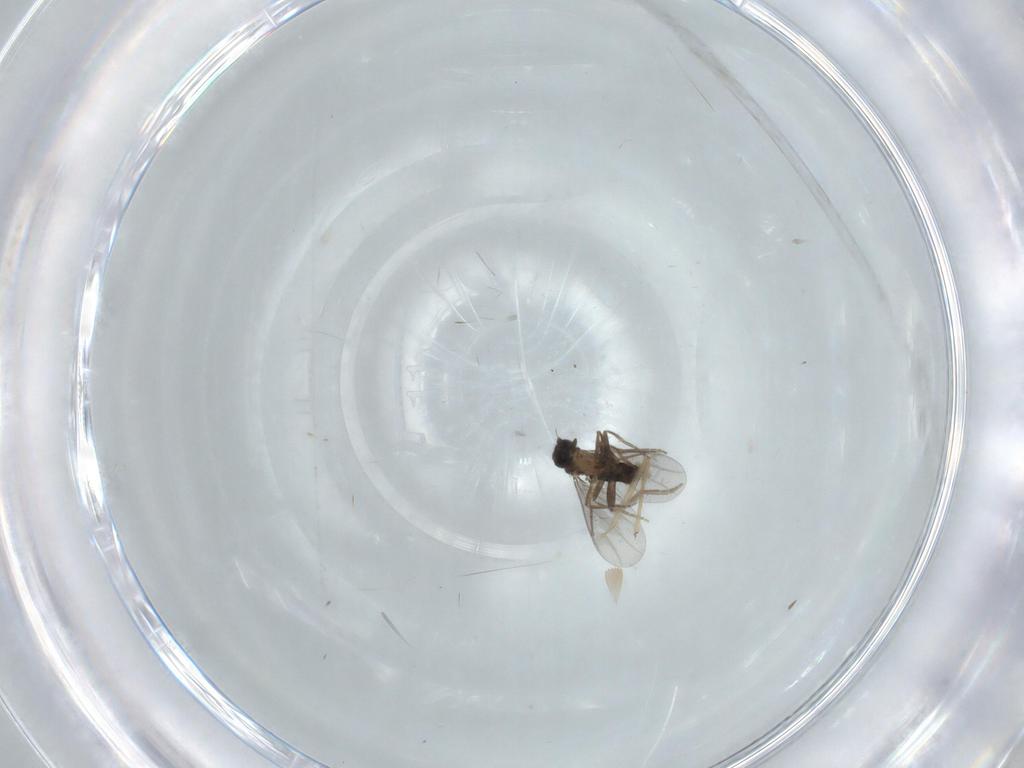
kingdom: Animalia
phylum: Arthropoda
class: Insecta
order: Diptera
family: Chironomidae
